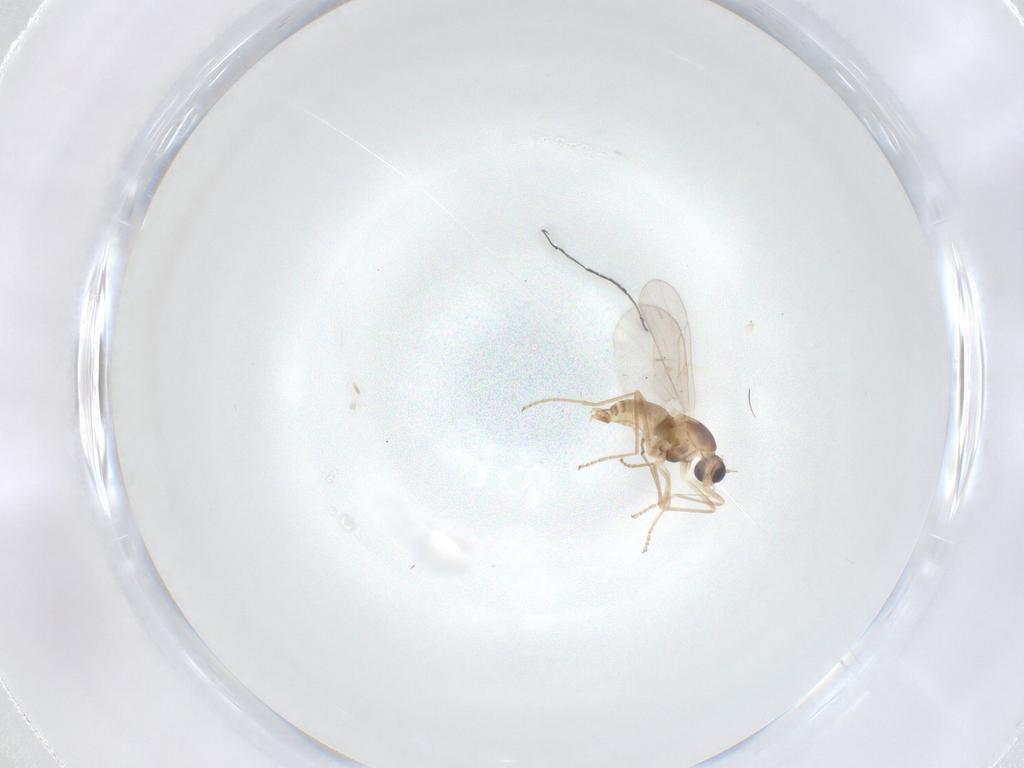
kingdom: Animalia
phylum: Arthropoda
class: Insecta
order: Diptera
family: Cecidomyiidae
